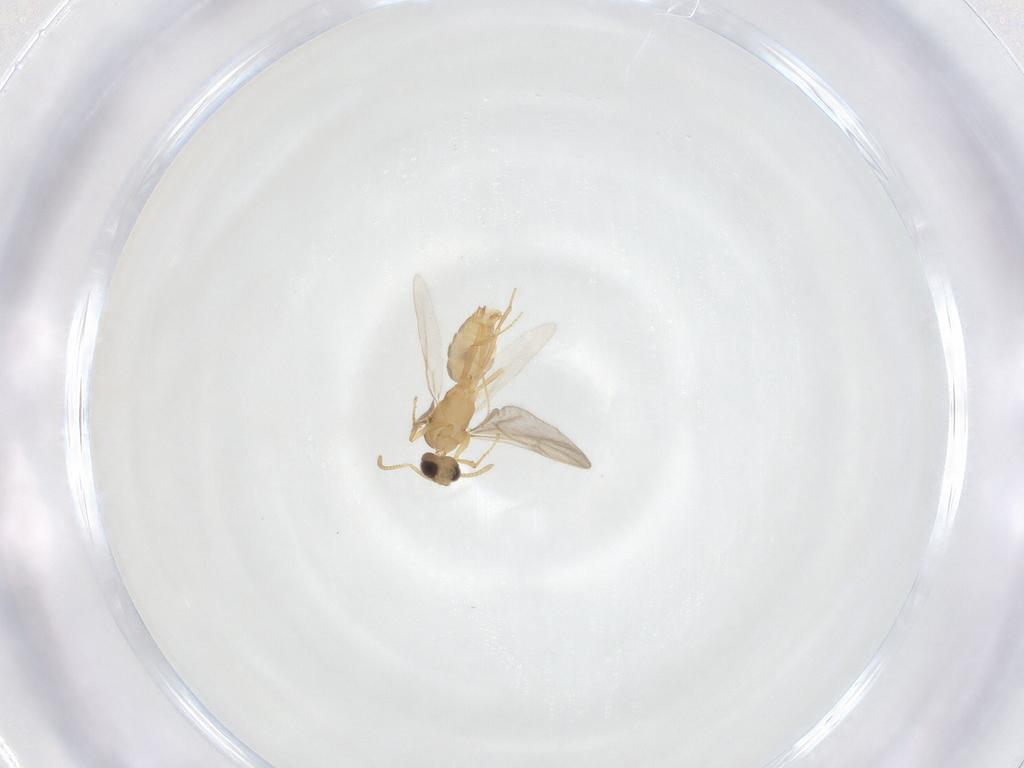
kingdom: Animalia
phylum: Arthropoda
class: Insecta
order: Hymenoptera
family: Formicidae
